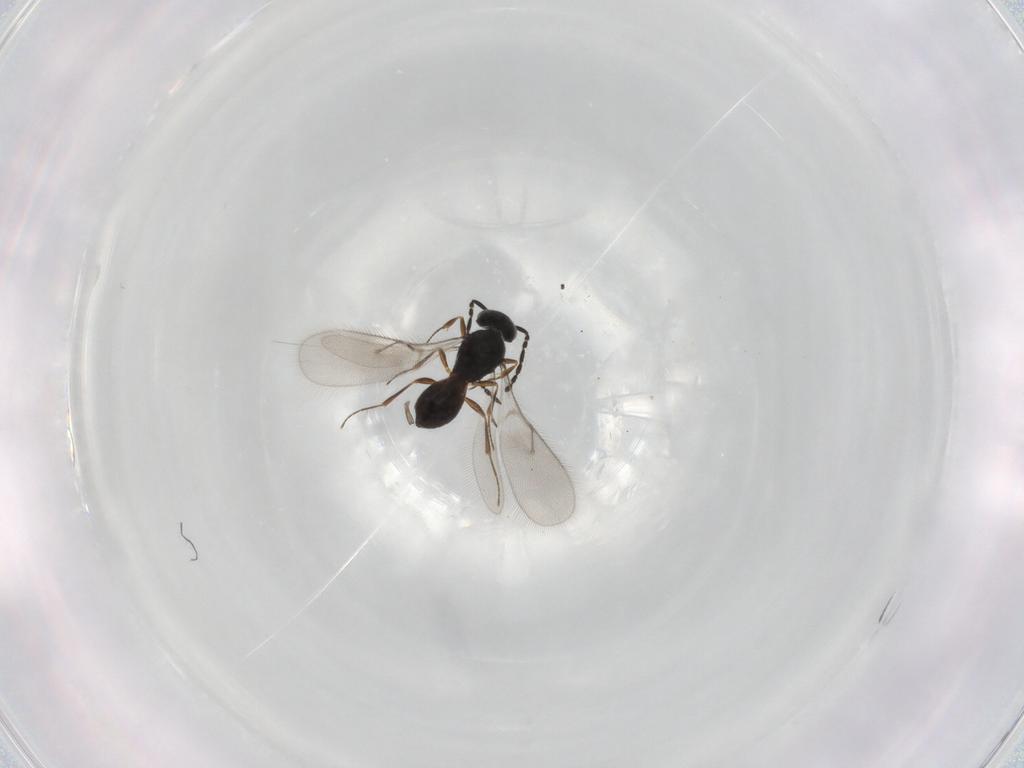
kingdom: Animalia
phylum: Arthropoda
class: Insecta
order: Hymenoptera
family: Scelionidae
